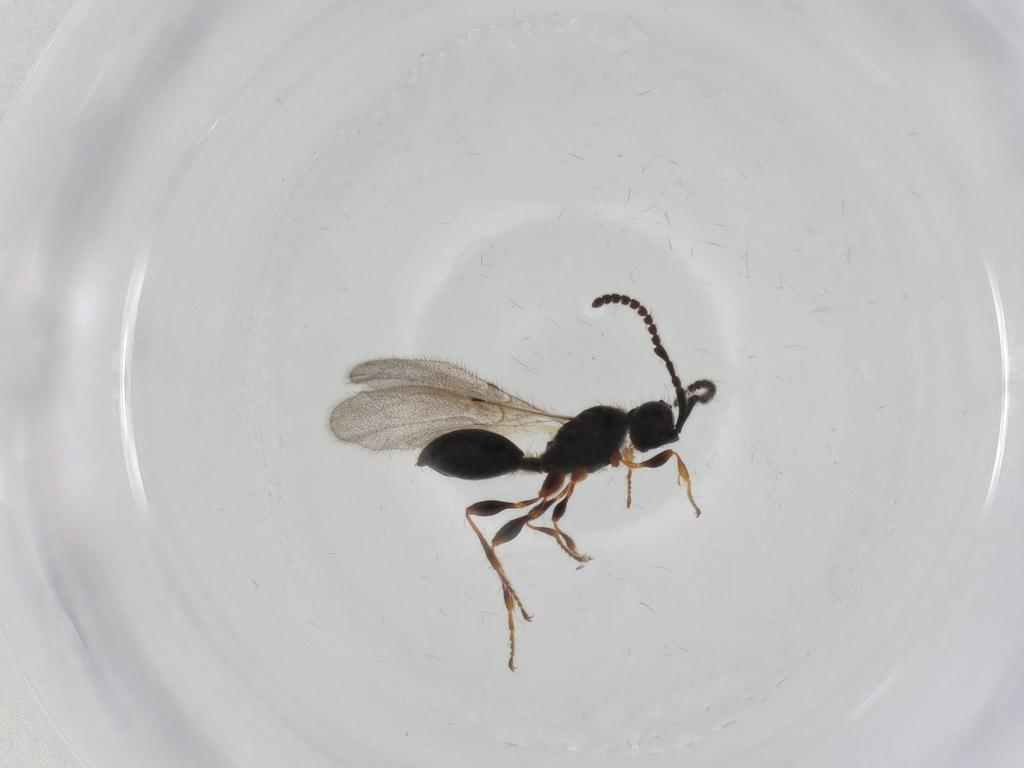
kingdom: Animalia
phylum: Arthropoda
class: Insecta
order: Hymenoptera
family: Diapriidae
